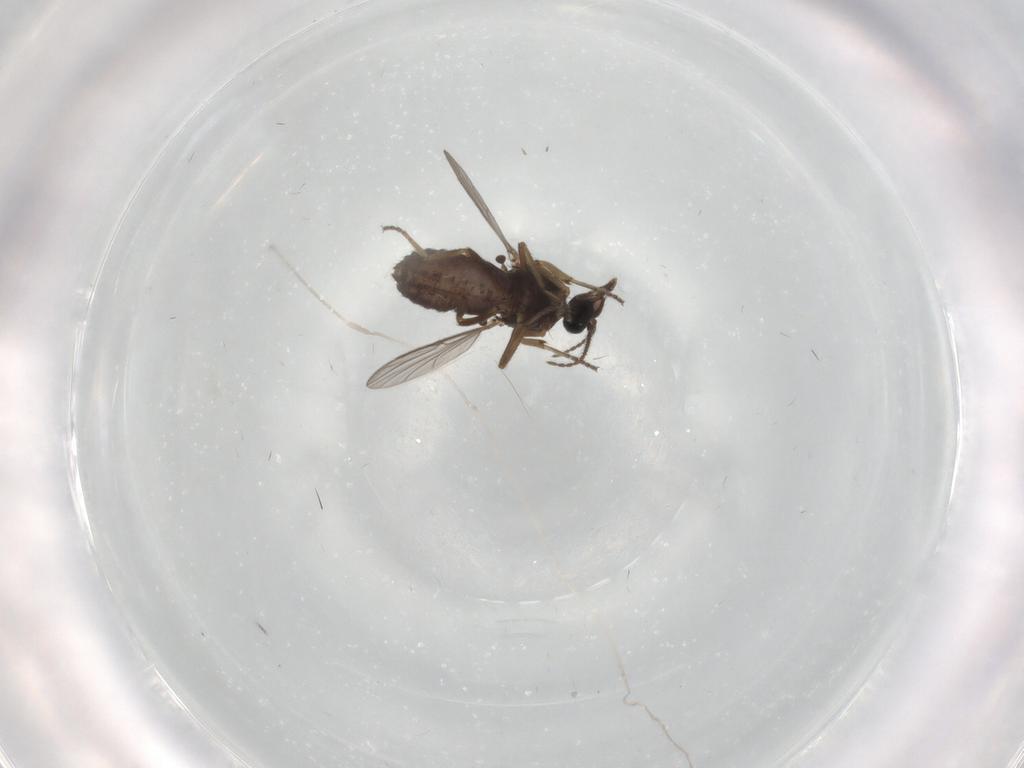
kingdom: Animalia
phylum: Arthropoda
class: Insecta
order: Diptera
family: Ceratopogonidae
